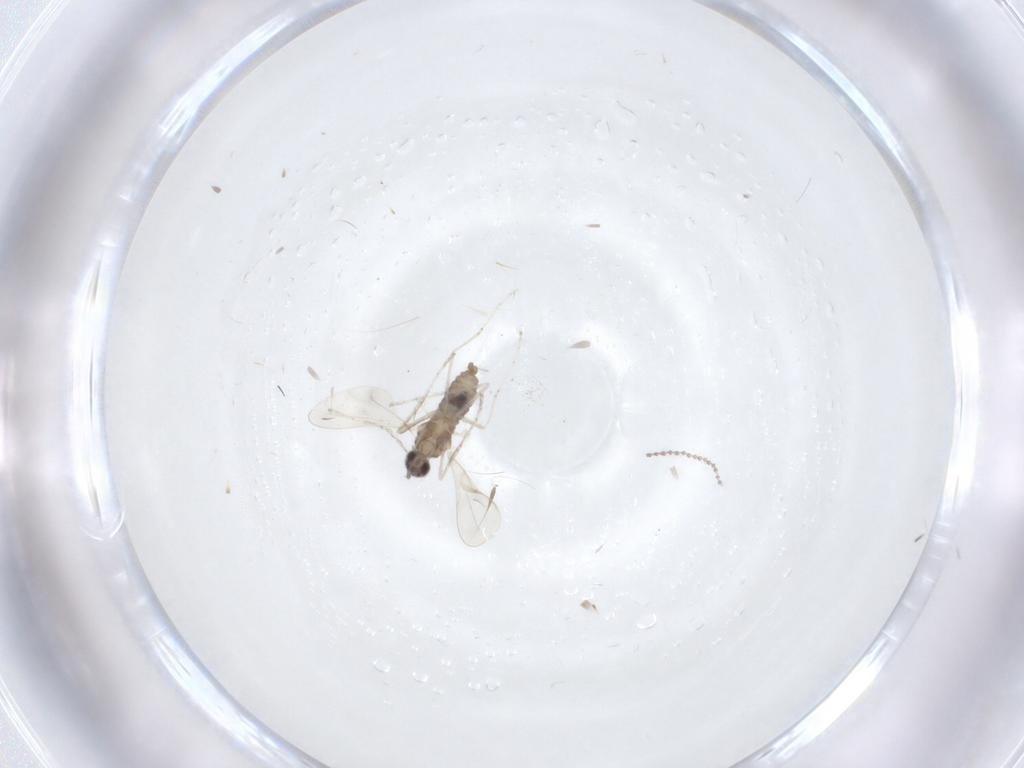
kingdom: Animalia
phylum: Arthropoda
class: Insecta
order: Diptera
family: Cecidomyiidae
